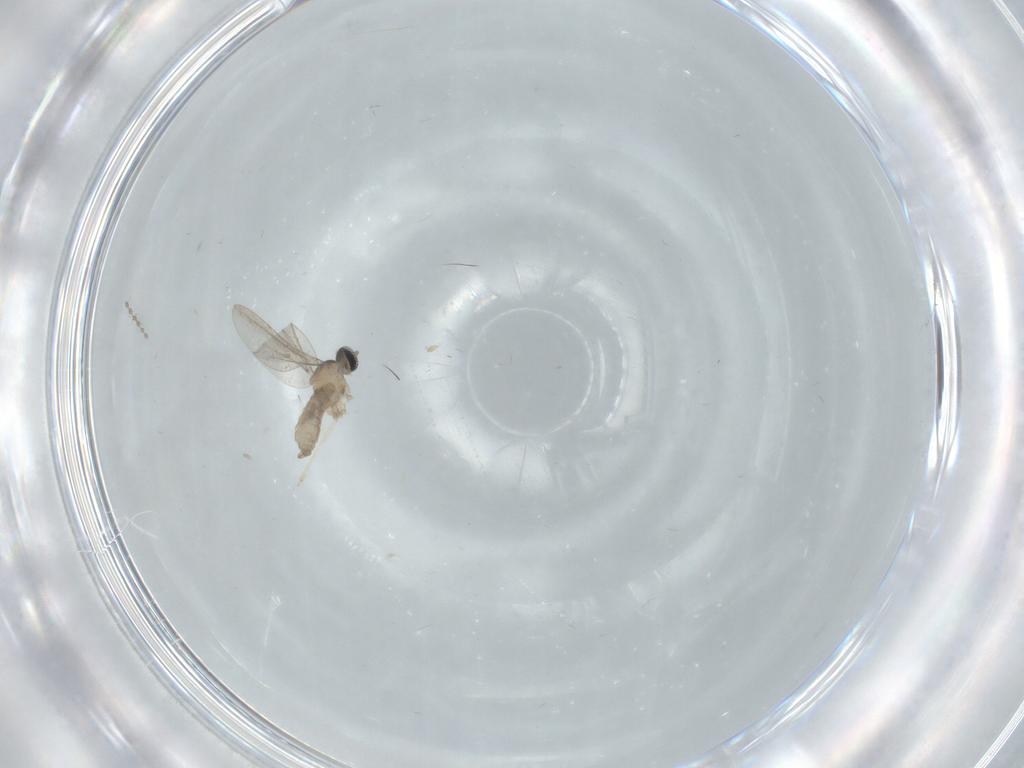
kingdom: Animalia
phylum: Arthropoda
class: Insecta
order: Diptera
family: Cecidomyiidae
